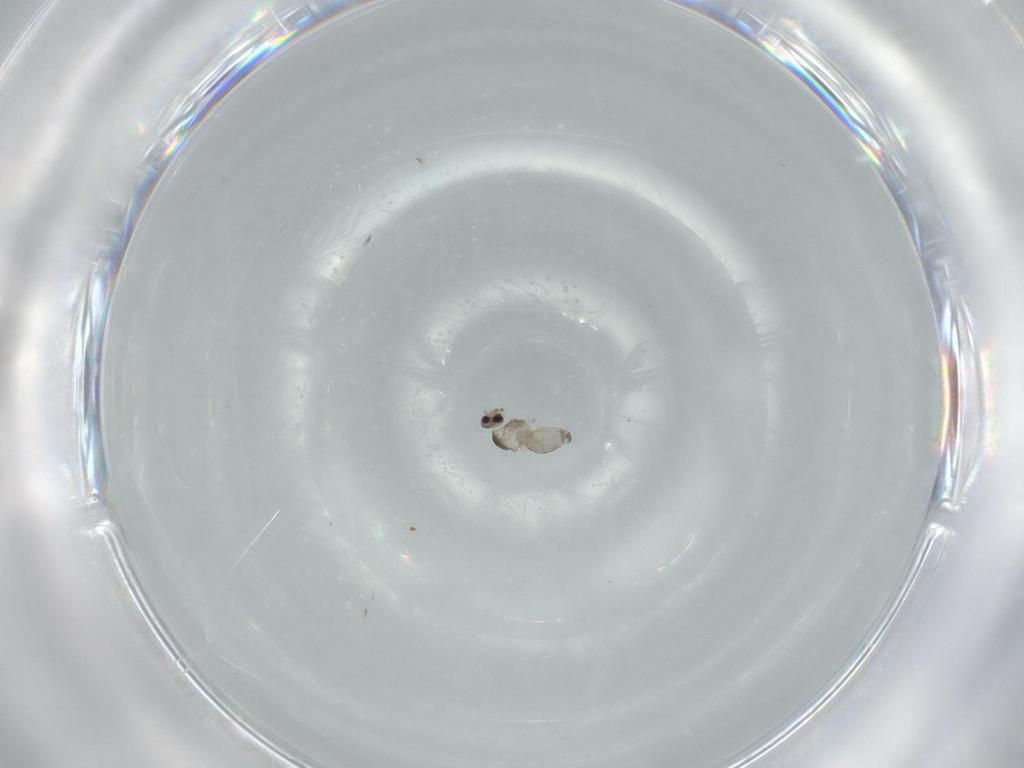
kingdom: Animalia
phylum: Arthropoda
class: Insecta
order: Diptera
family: Cecidomyiidae
